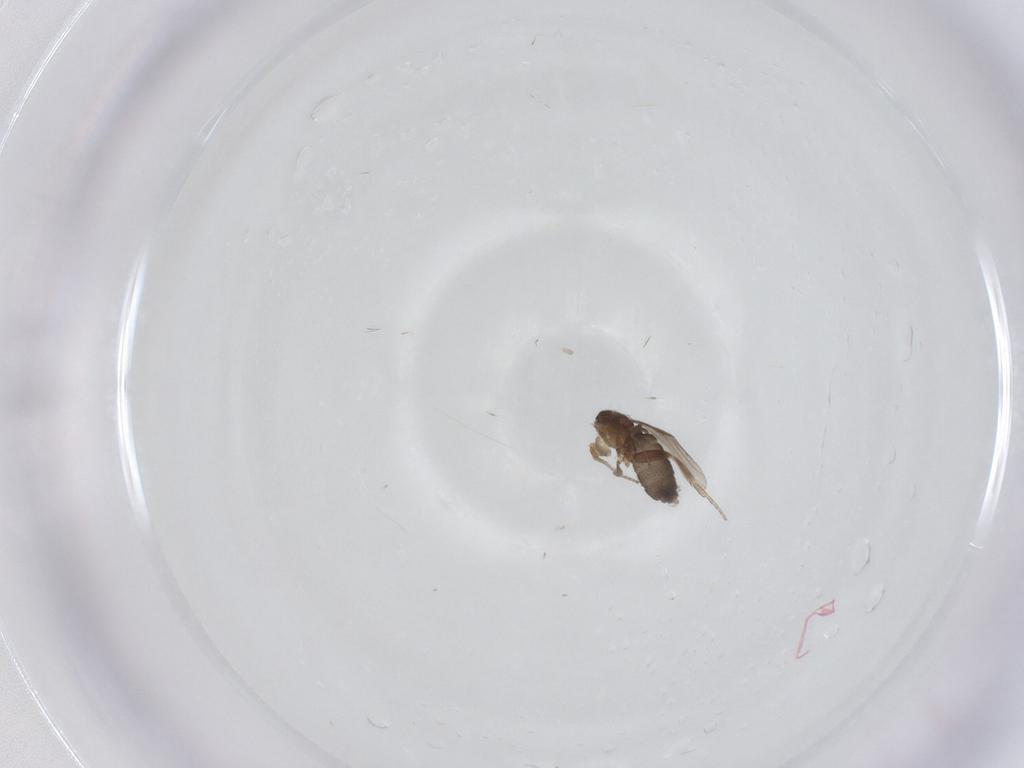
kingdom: Animalia
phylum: Arthropoda
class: Insecta
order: Diptera
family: Phoridae
